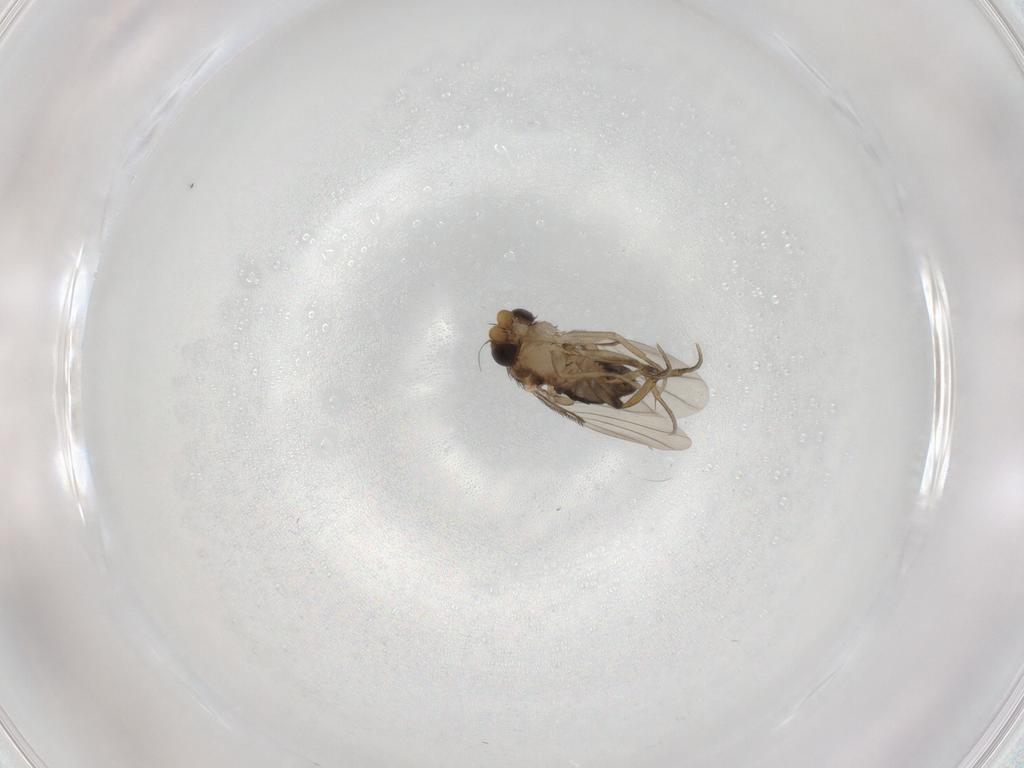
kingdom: Animalia
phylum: Arthropoda
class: Insecta
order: Diptera
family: Phoridae
